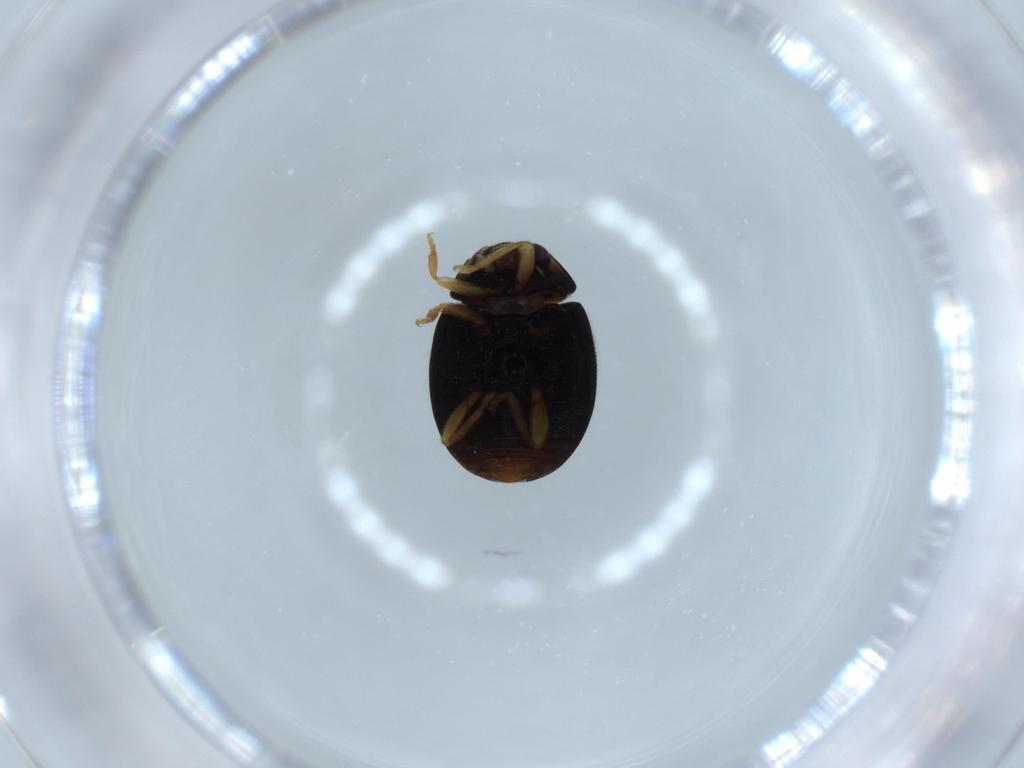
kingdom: Animalia
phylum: Arthropoda
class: Insecta
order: Coleoptera
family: Coccinellidae
